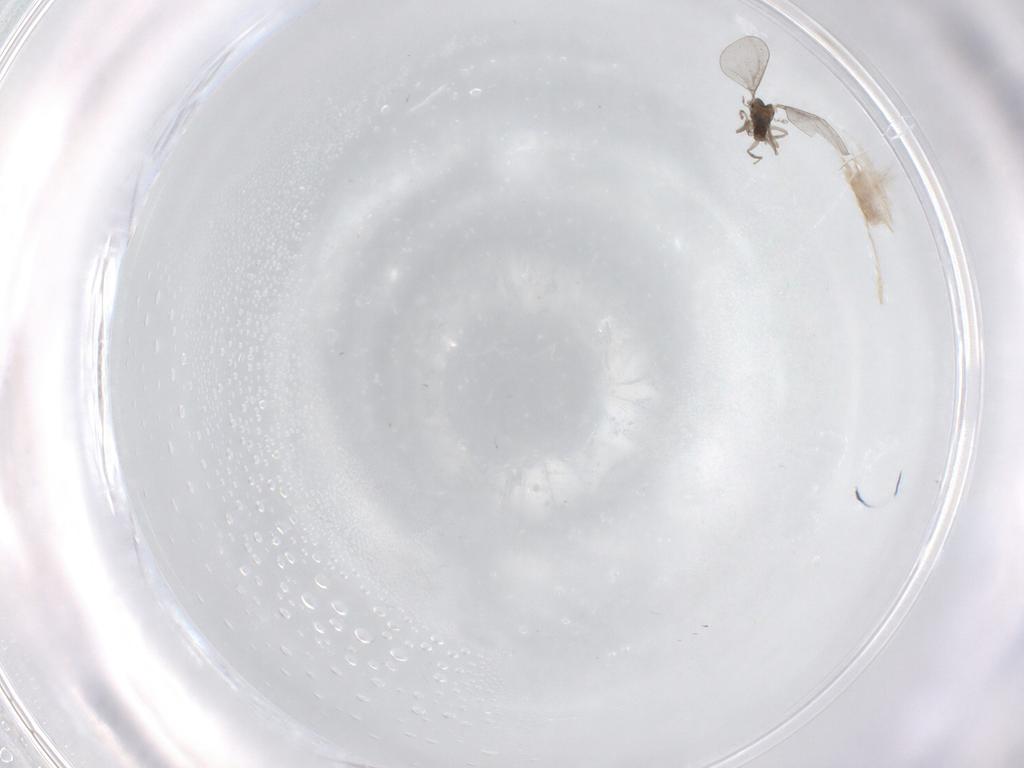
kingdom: Animalia
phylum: Arthropoda
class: Insecta
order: Diptera
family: Cecidomyiidae
